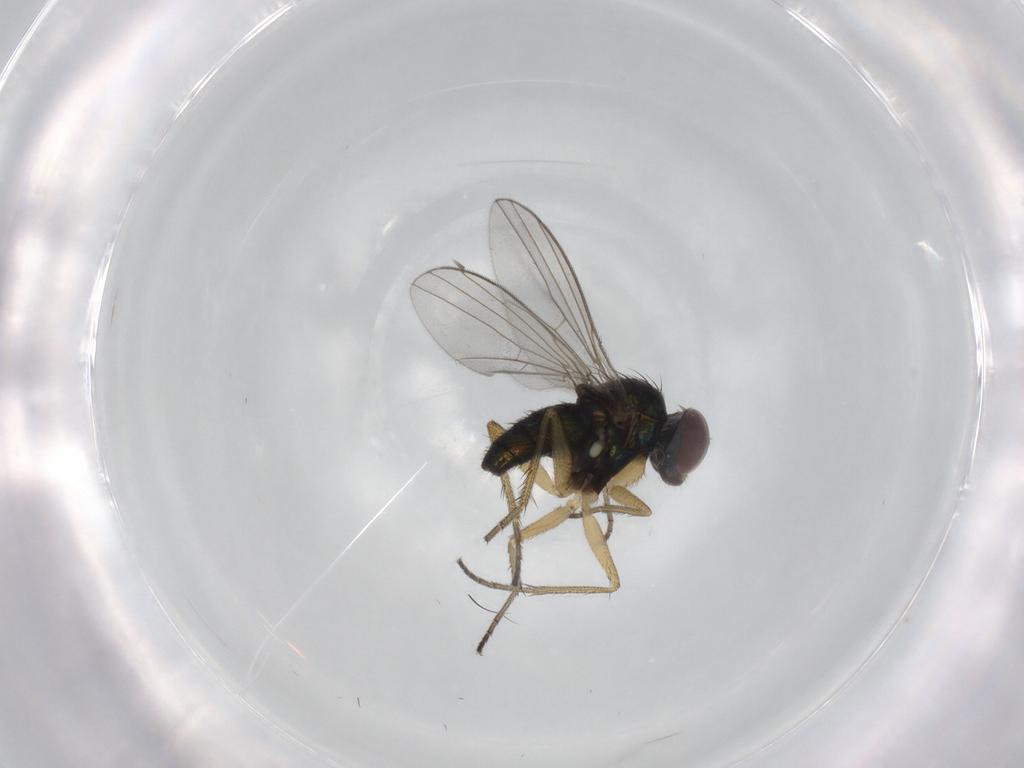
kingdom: Animalia
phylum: Arthropoda
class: Insecta
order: Diptera
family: Dolichopodidae
